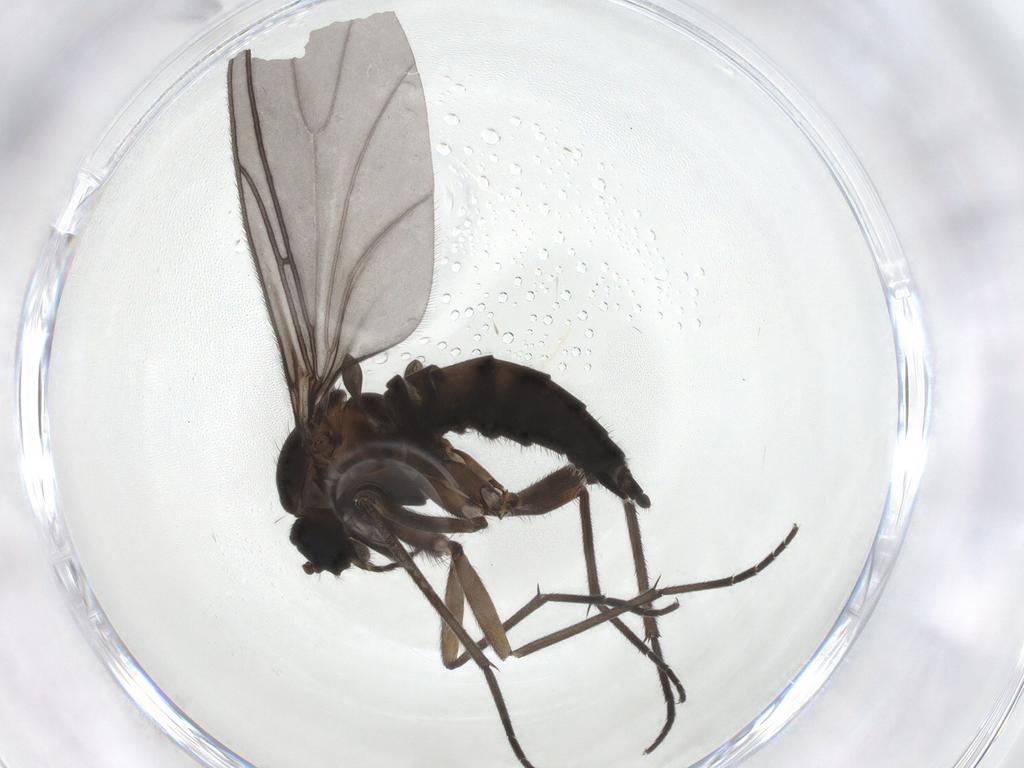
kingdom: Animalia
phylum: Arthropoda
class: Insecta
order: Diptera
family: Sciaridae
